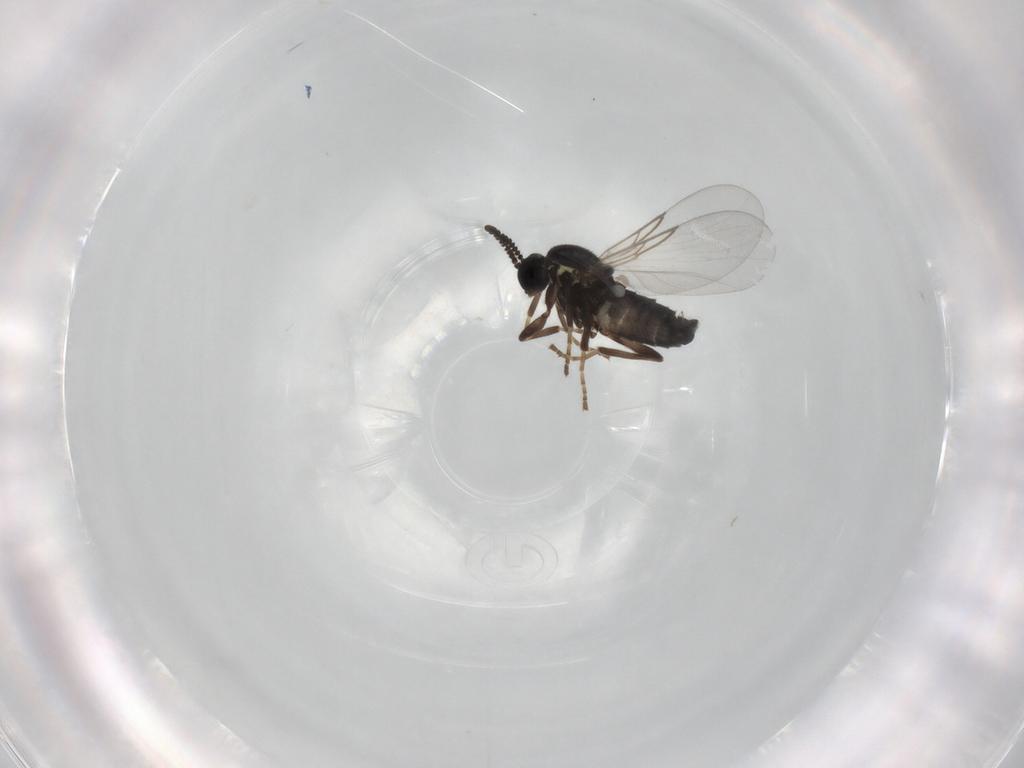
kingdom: Animalia
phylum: Arthropoda
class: Insecta
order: Diptera
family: Scatopsidae
